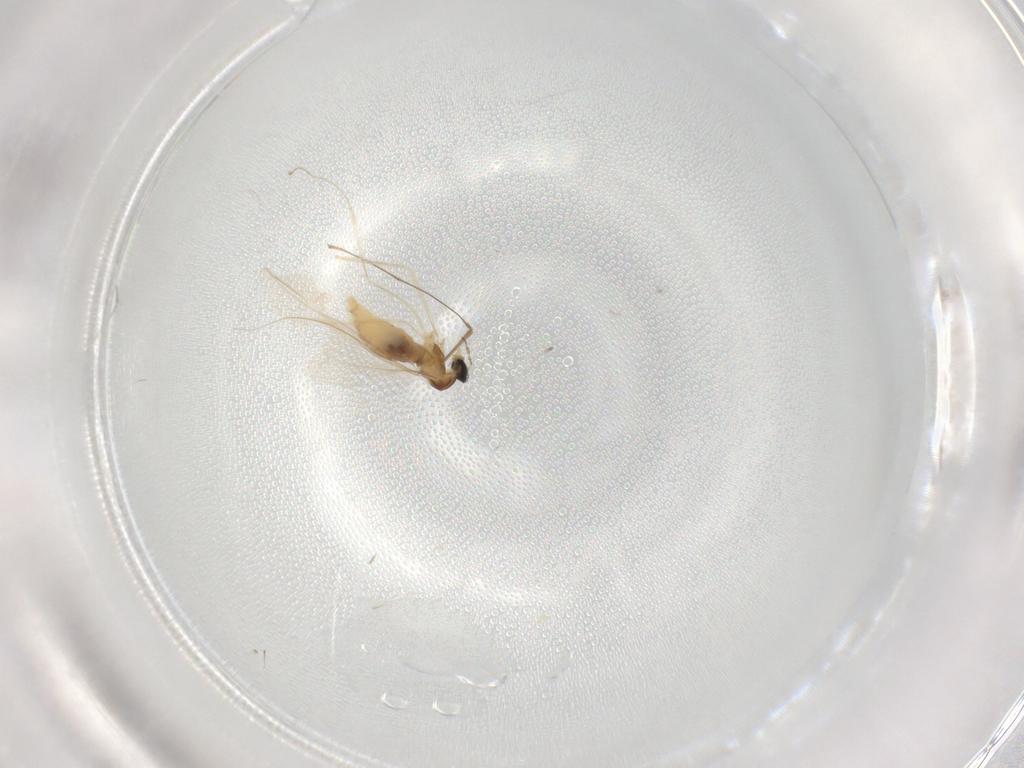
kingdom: Animalia
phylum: Arthropoda
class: Insecta
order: Diptera
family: Cecidomyiidae
